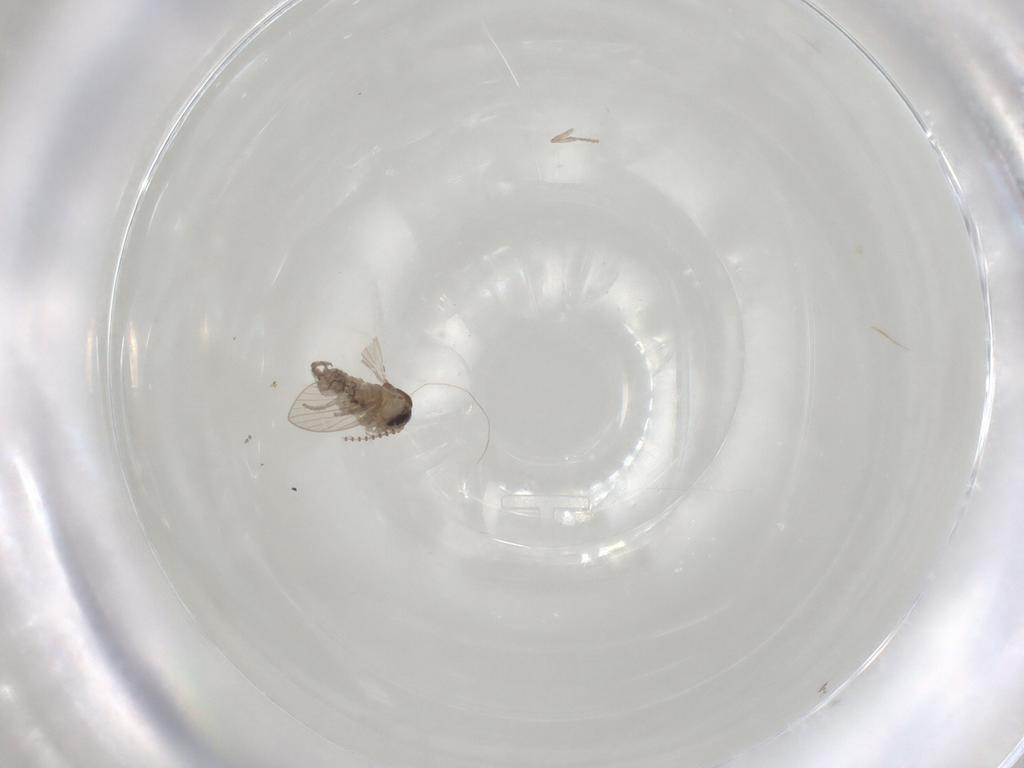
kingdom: Animalia
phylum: Arthropoda
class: Insecta
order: Diptera
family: Psychodidae
